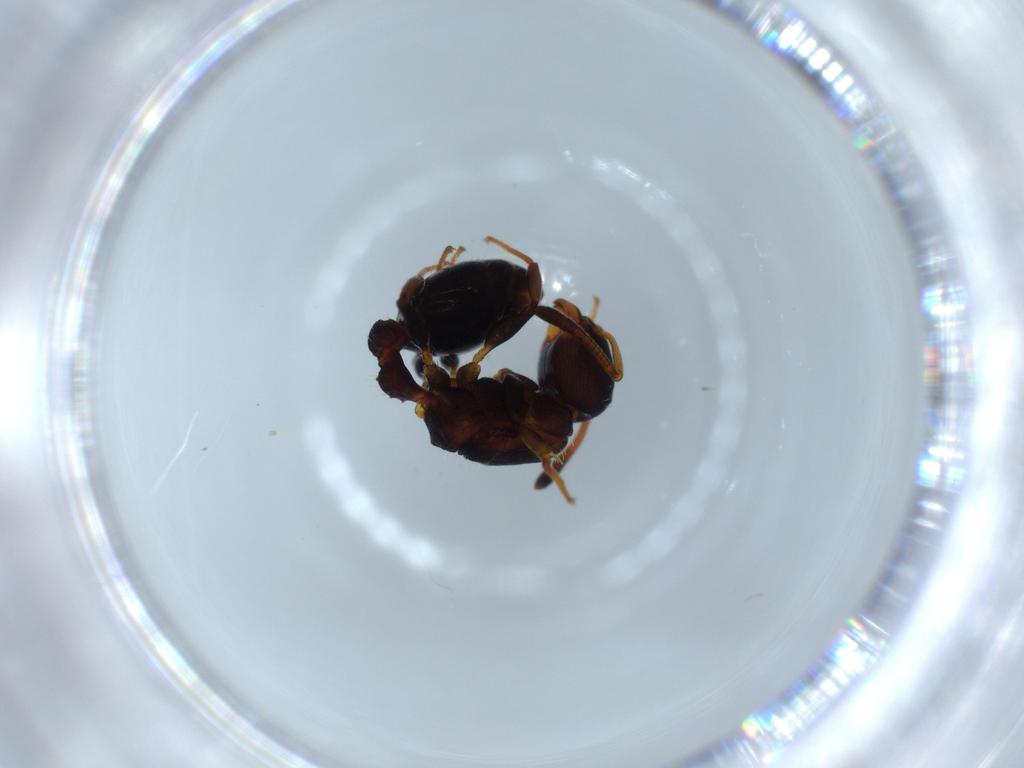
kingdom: Animalia
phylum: Arthropoda
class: Insecta
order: Hymenoptera
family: Formicidae
